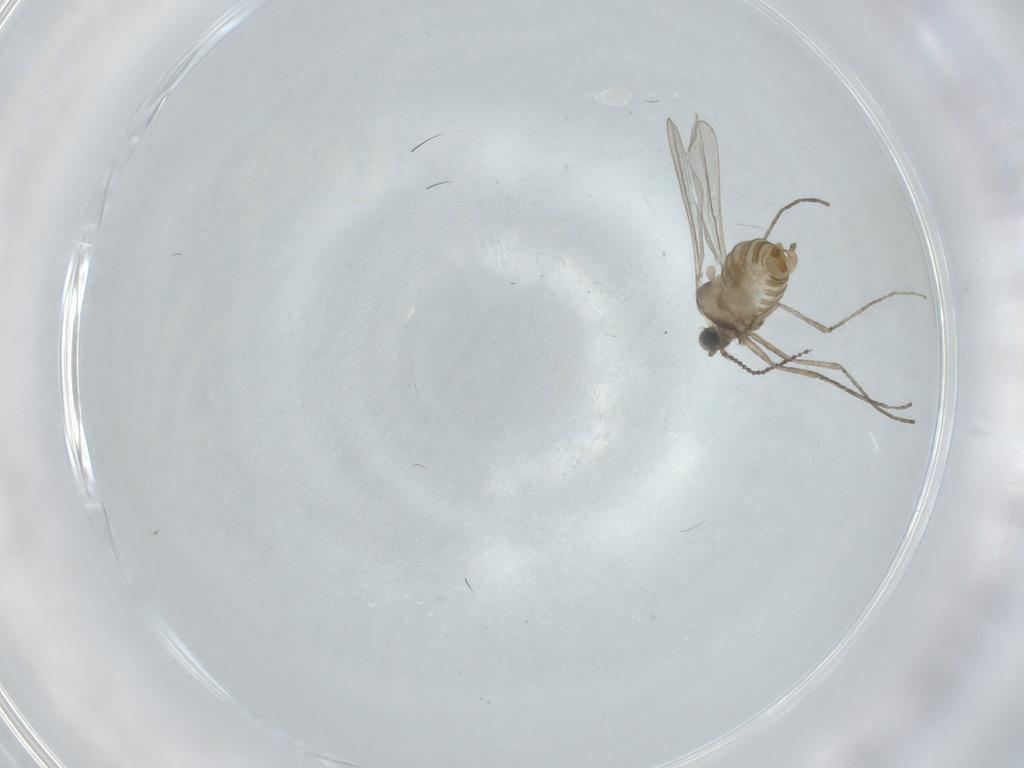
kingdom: Animalia
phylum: Arthropoda
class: Insecta
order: Diptera
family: Cecidomyiidae
